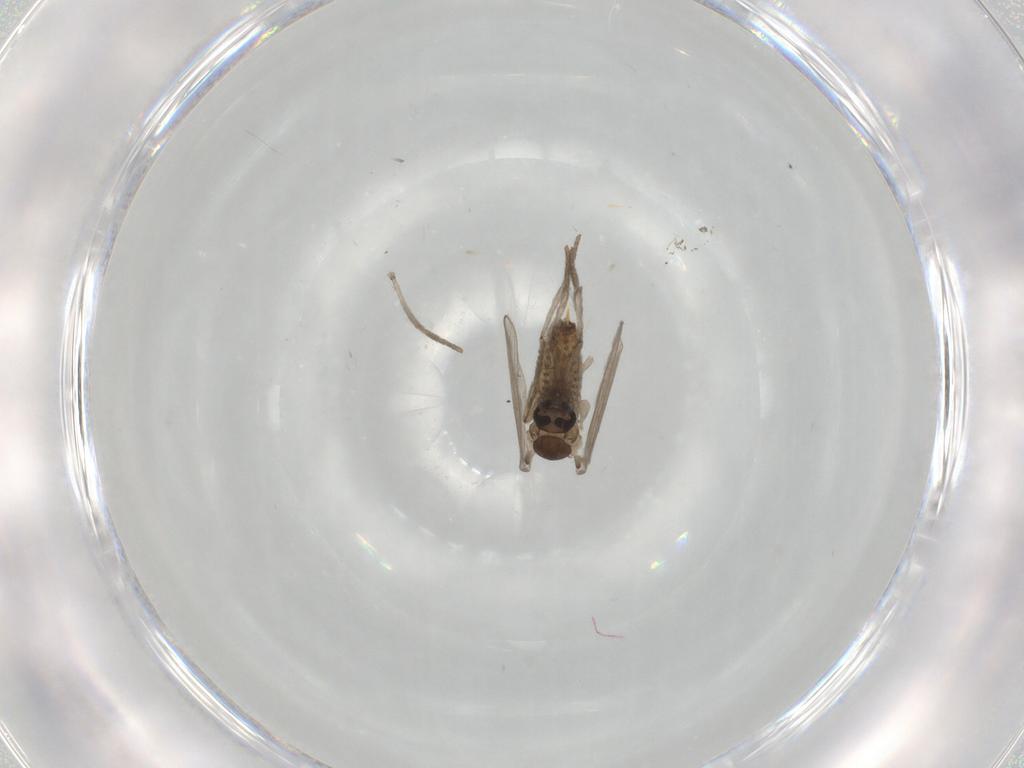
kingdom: Animalia
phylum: Arthropoda
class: Insecta
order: Diptera
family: Psychodidae
